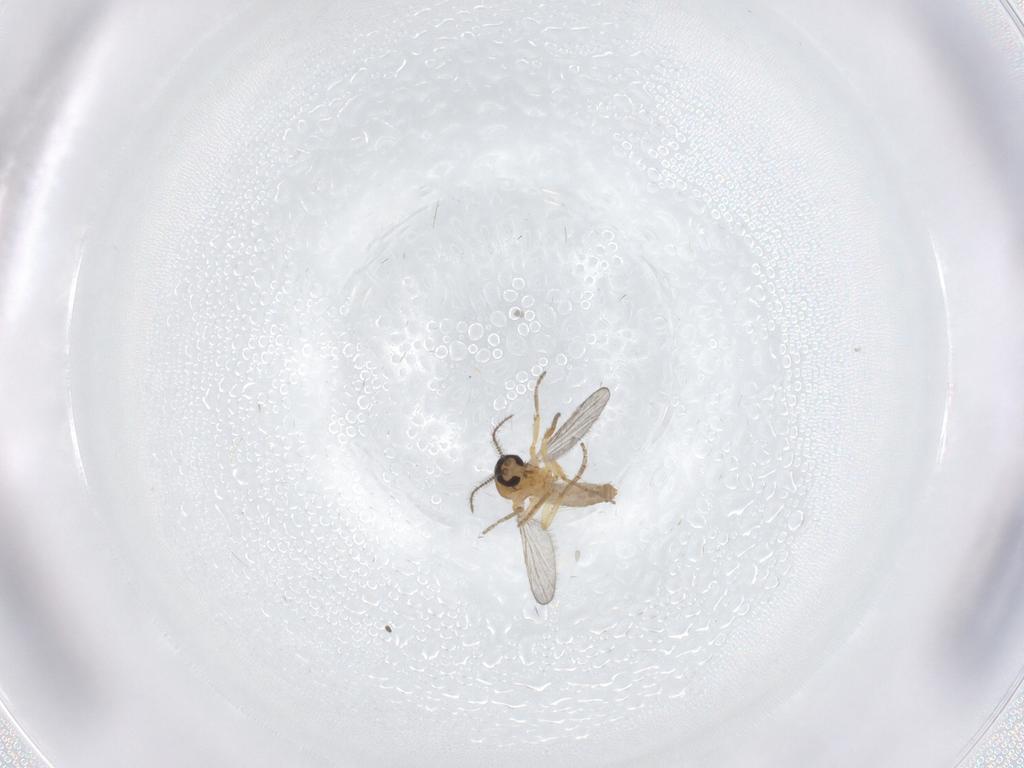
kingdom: Animalia
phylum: Arthropoda
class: Insecta
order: Diptera
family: Ceratopogonidae
